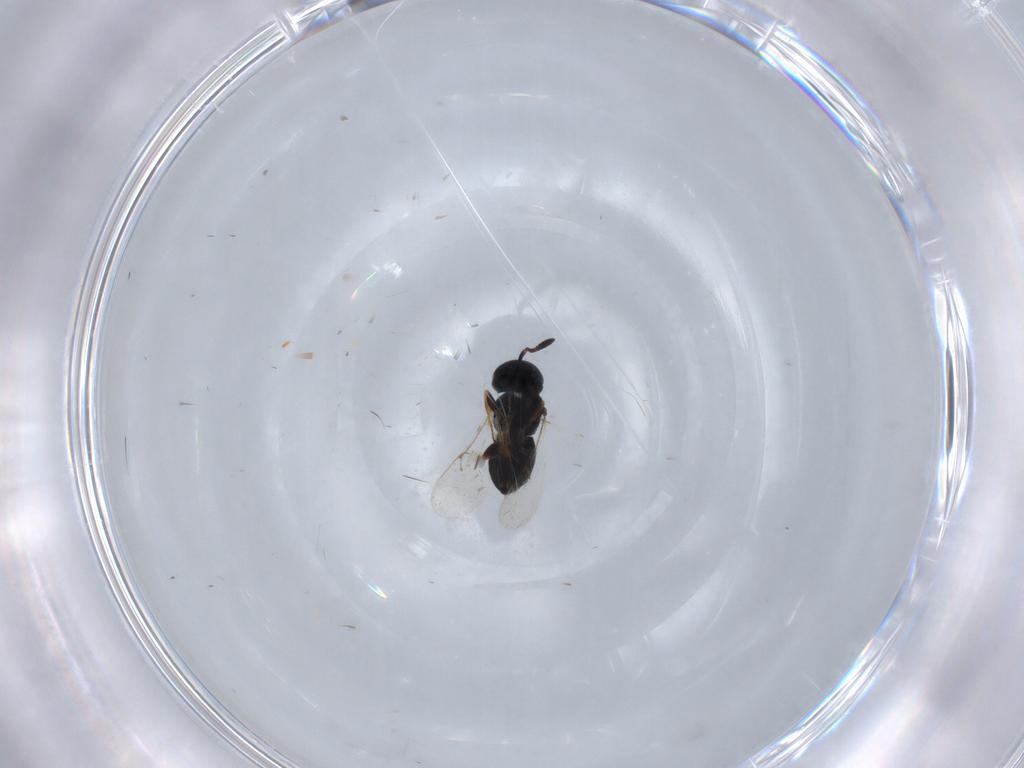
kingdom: Animalia
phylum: Arthropoda
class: Insecta
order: Hymenoptera
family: Scelionidae
